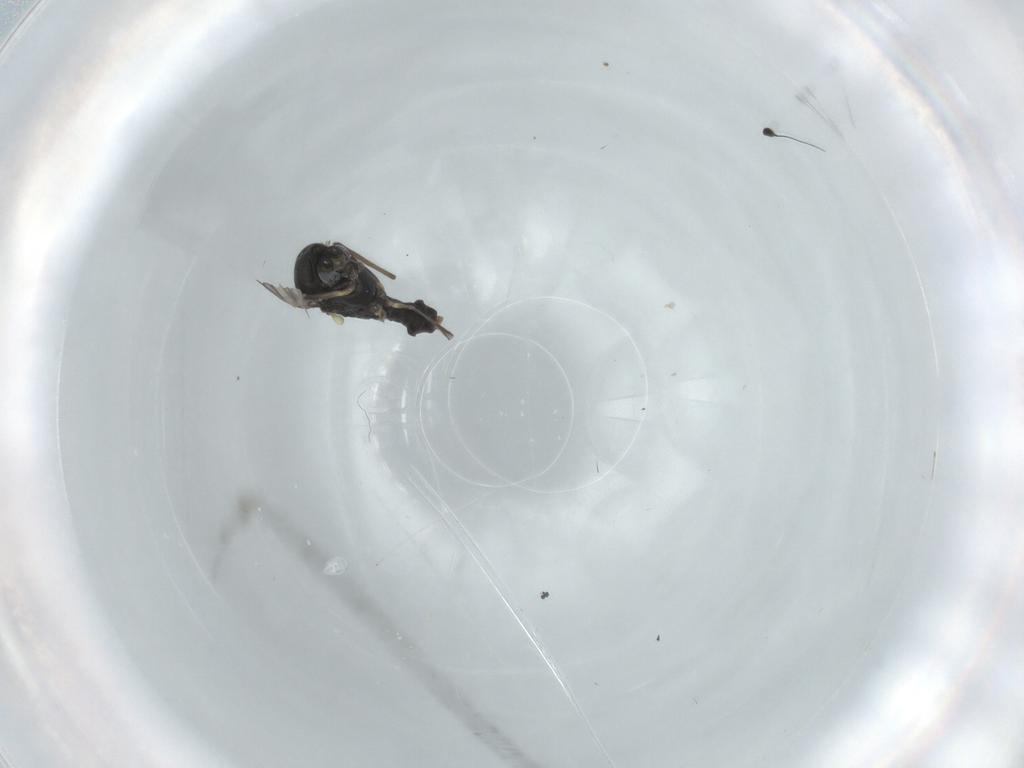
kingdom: Animalia
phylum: Arthropoda
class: Insecta
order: Diptera
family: Chironomidae
